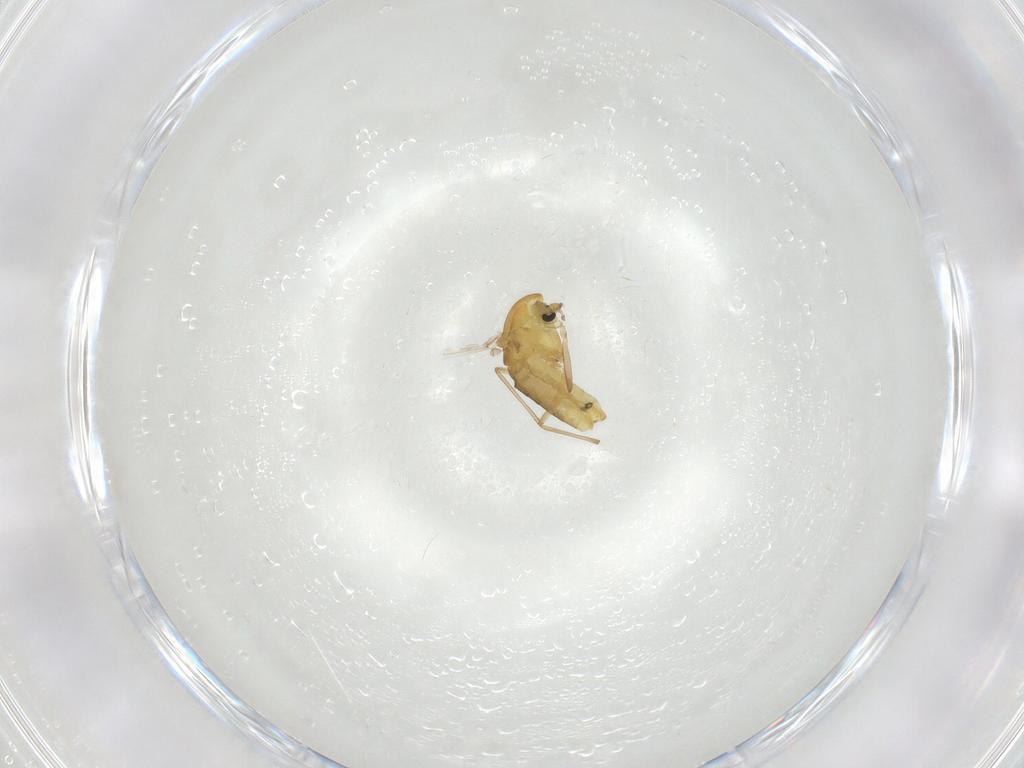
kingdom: Animalia
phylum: Arthropoda
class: Insecta
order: Diptera
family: Chironomidae
